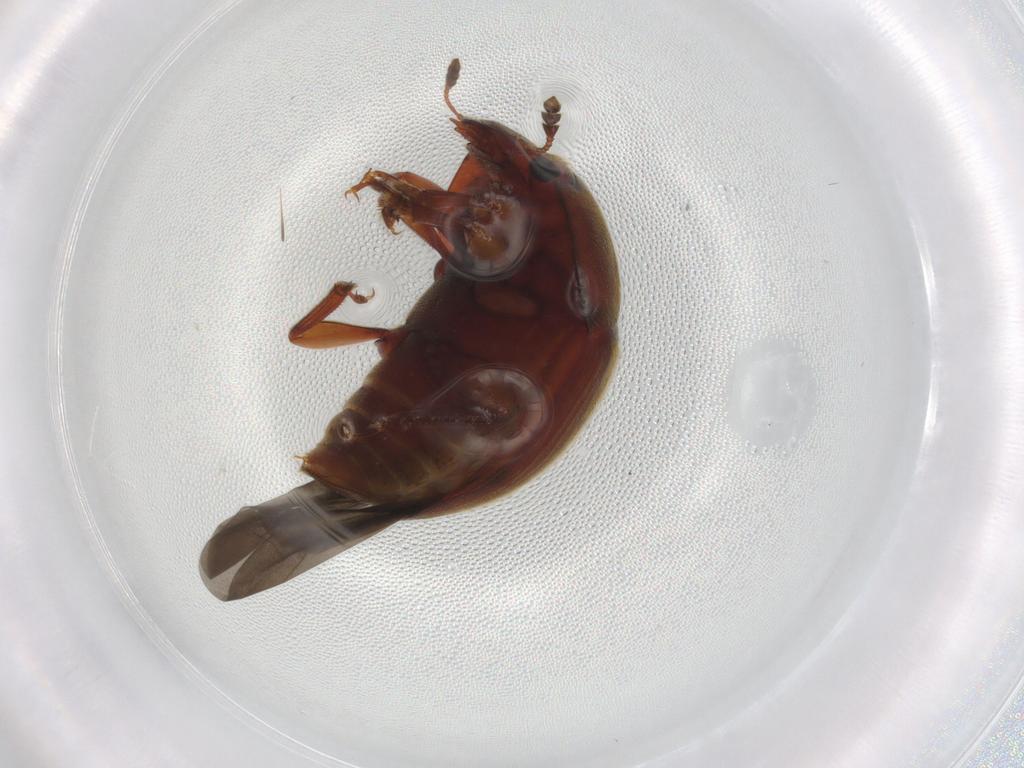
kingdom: Animalia
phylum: Arthropoda
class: Insecta
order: Coleoptera
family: Nitidulidae
